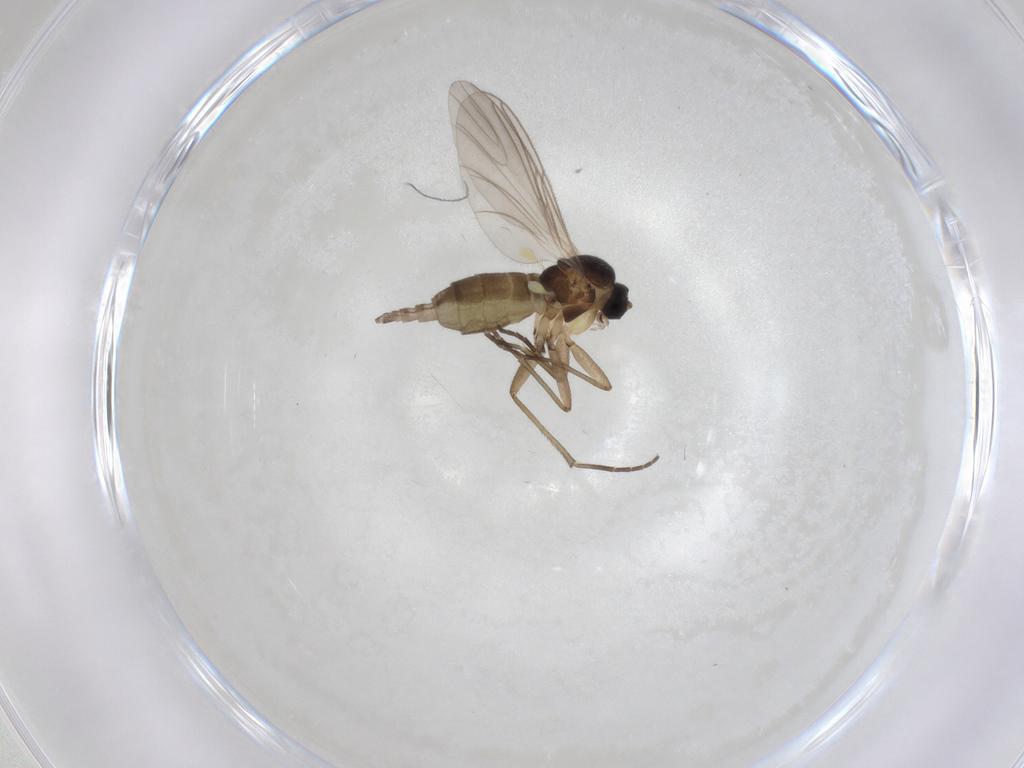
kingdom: Animalia
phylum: Arthropoda
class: Insecta
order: Diptera
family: Mycetophilidae
